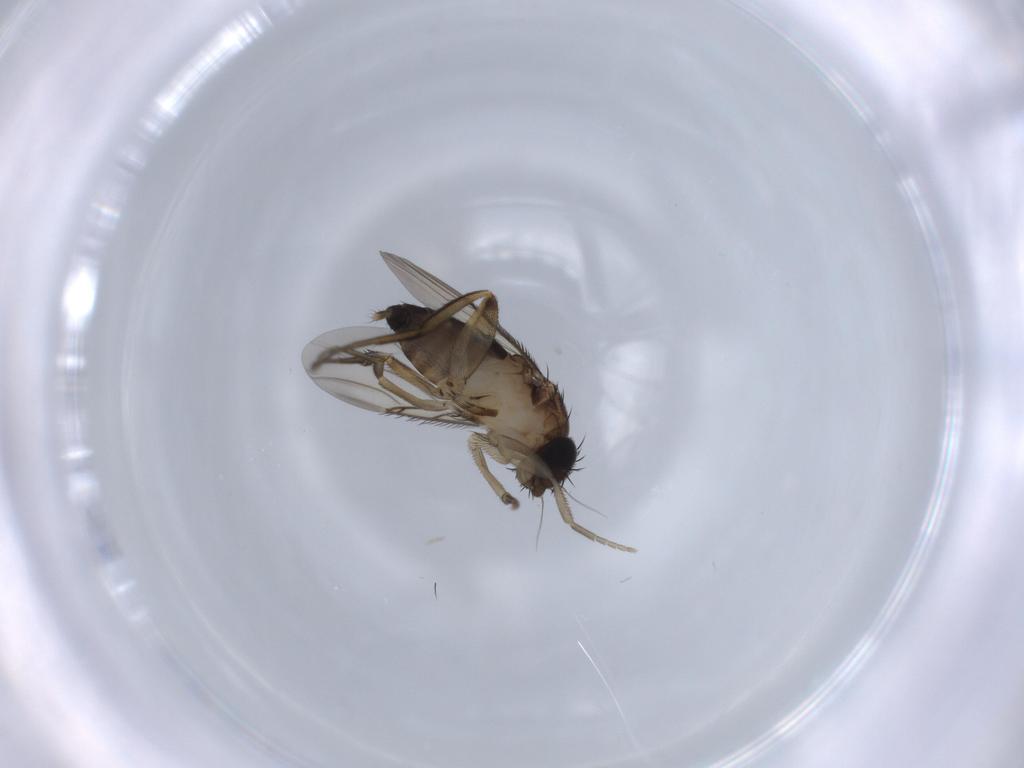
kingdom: Animalia
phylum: Arthropoda
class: Insecta
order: Diptera
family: Phoridae
